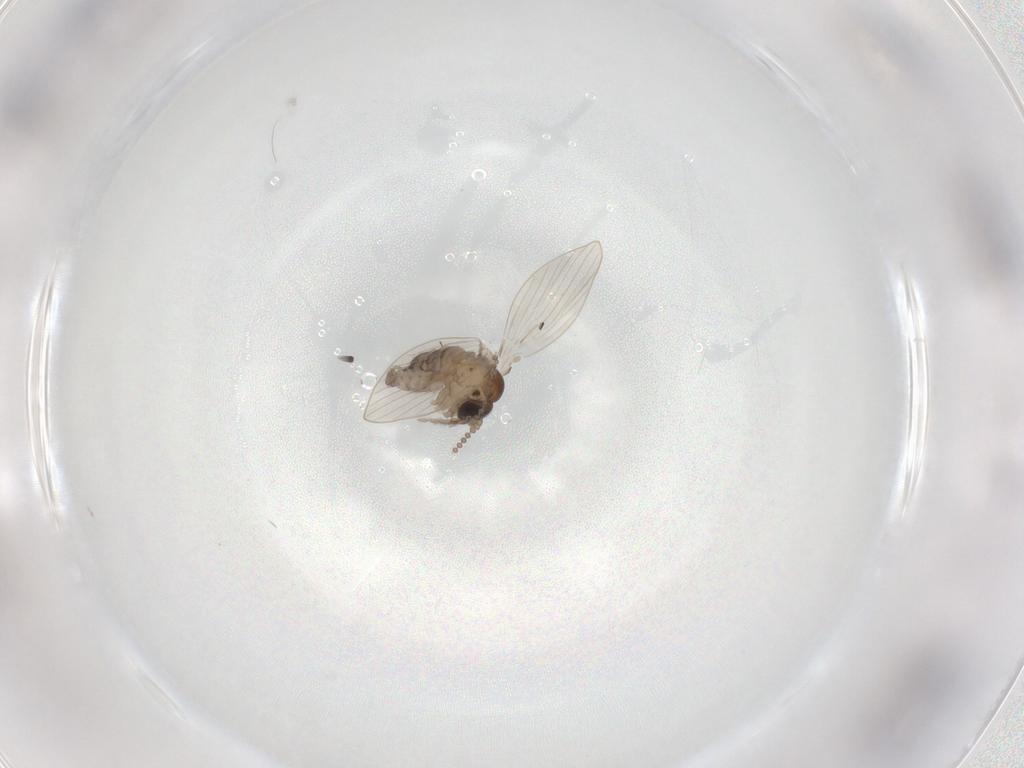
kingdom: Animalia
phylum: Arthropoda
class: Insecta
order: Diptera
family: Psychodidae
